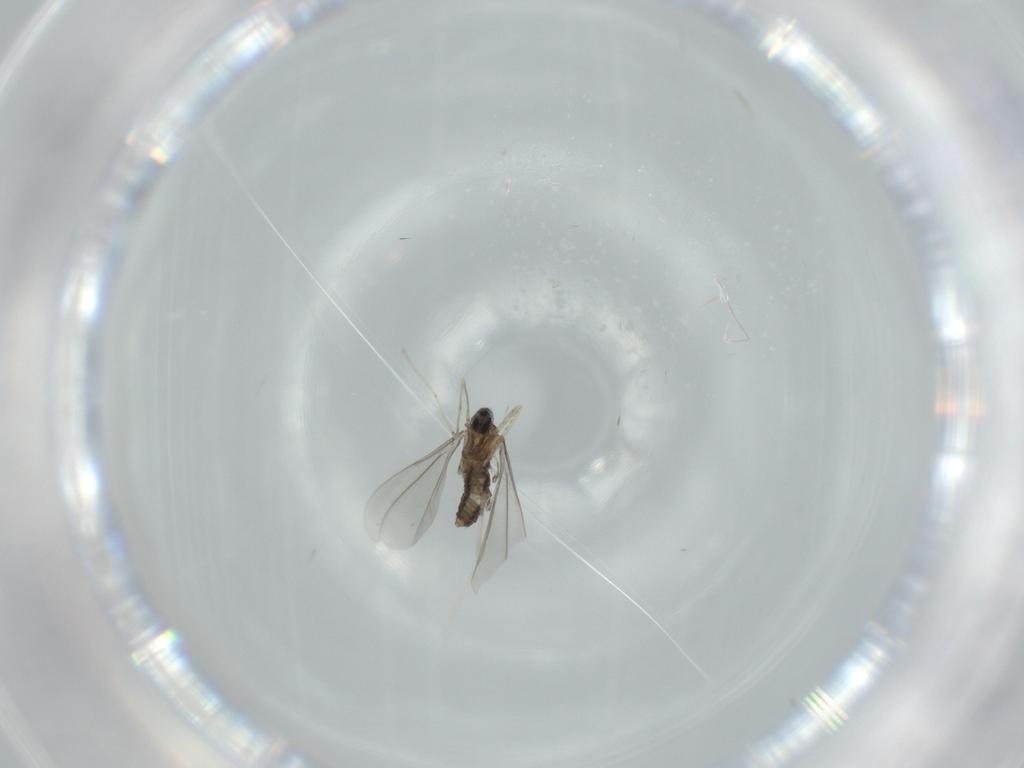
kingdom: Animalia
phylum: Arthropoda
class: Insecta
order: Diptera
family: Cecidomyiidae
